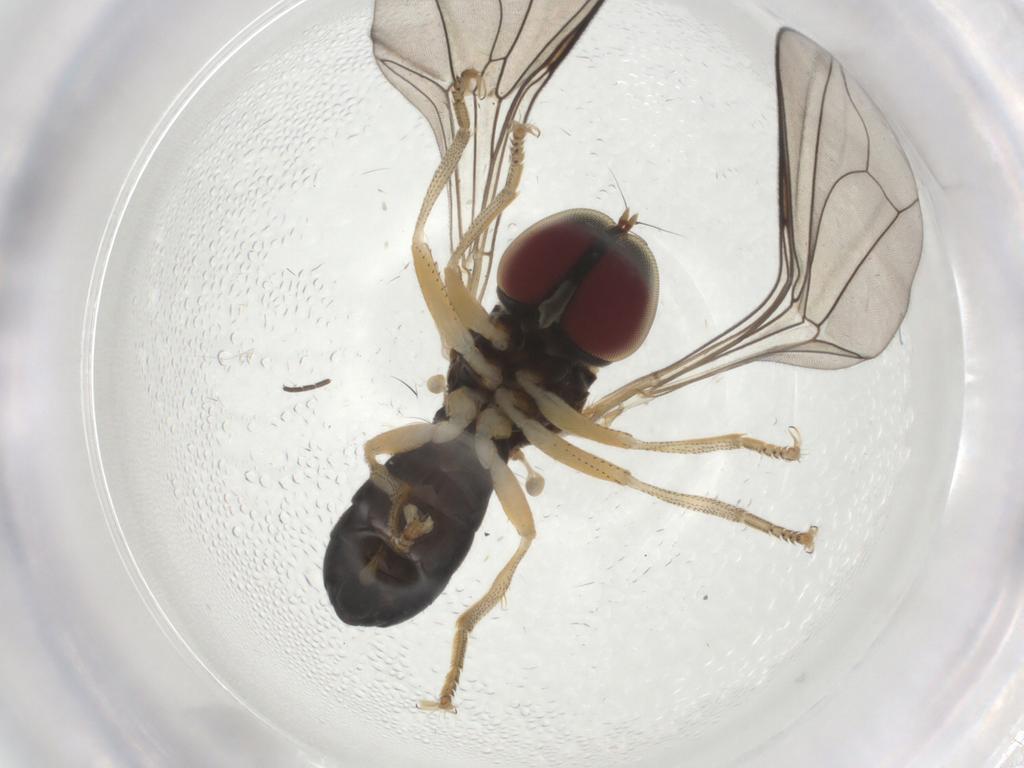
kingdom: Animalia
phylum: Arthropoda
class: Insecta
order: Diptera
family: Pipunculidae
